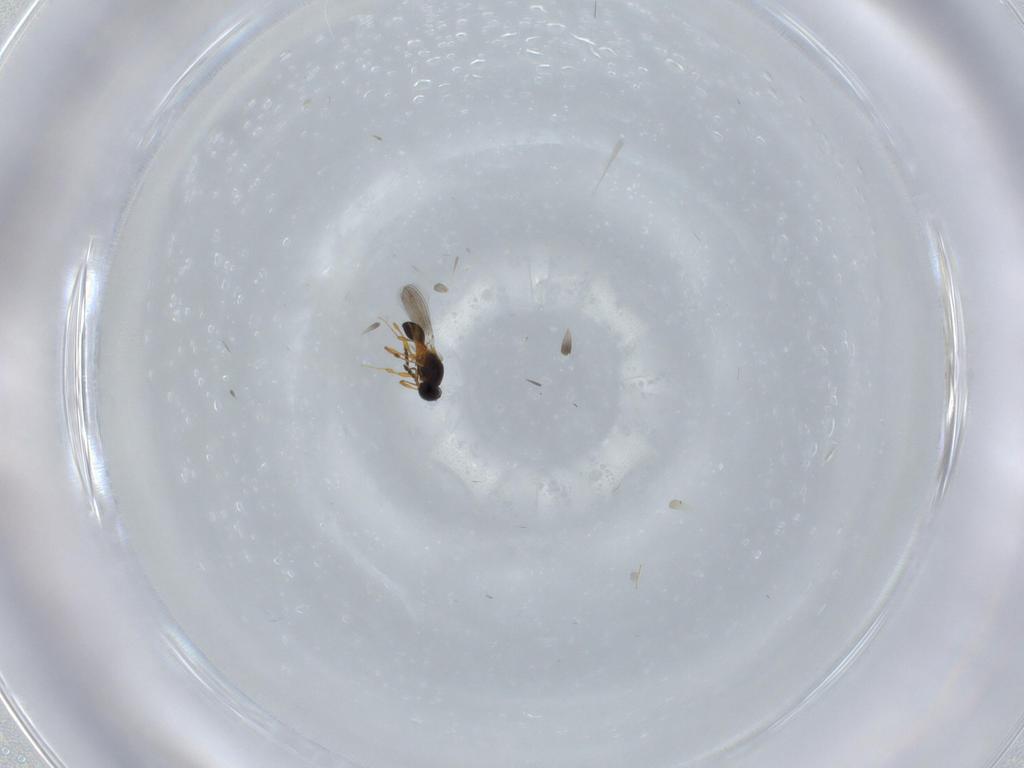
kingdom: Animalia
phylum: Arthropoda
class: Insecta
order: Hymenoptera
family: Platygastridae
